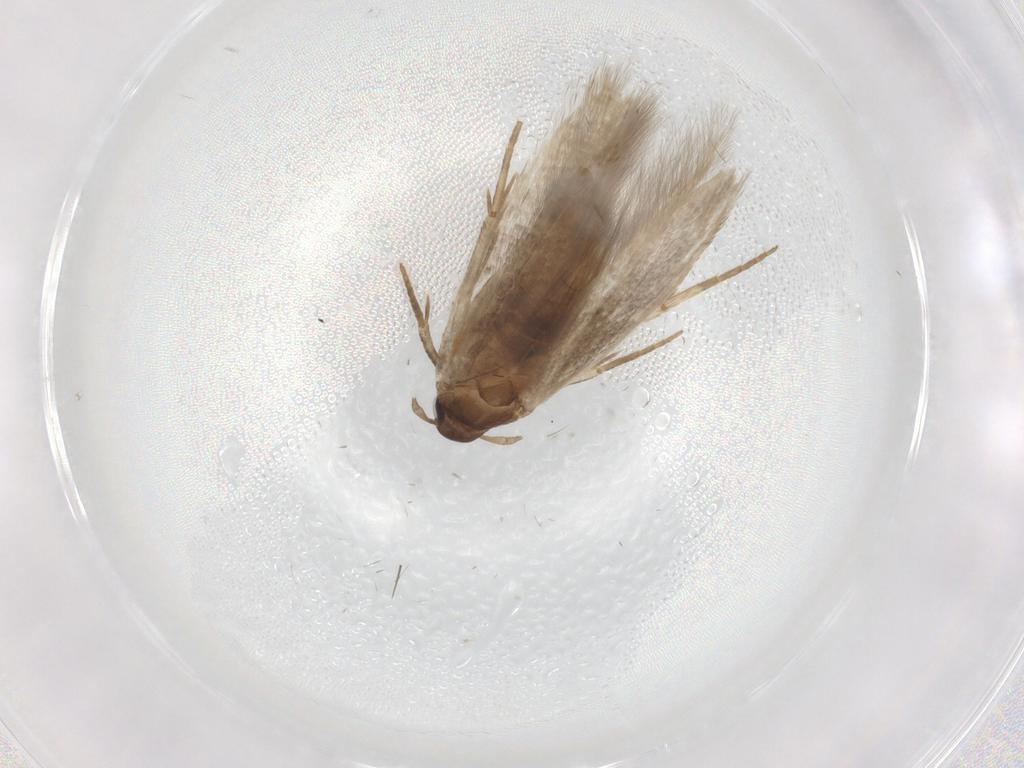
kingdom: Animalia
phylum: Arthropoda
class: Insecta
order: Lepidoptera
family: Cosmopterigidae
